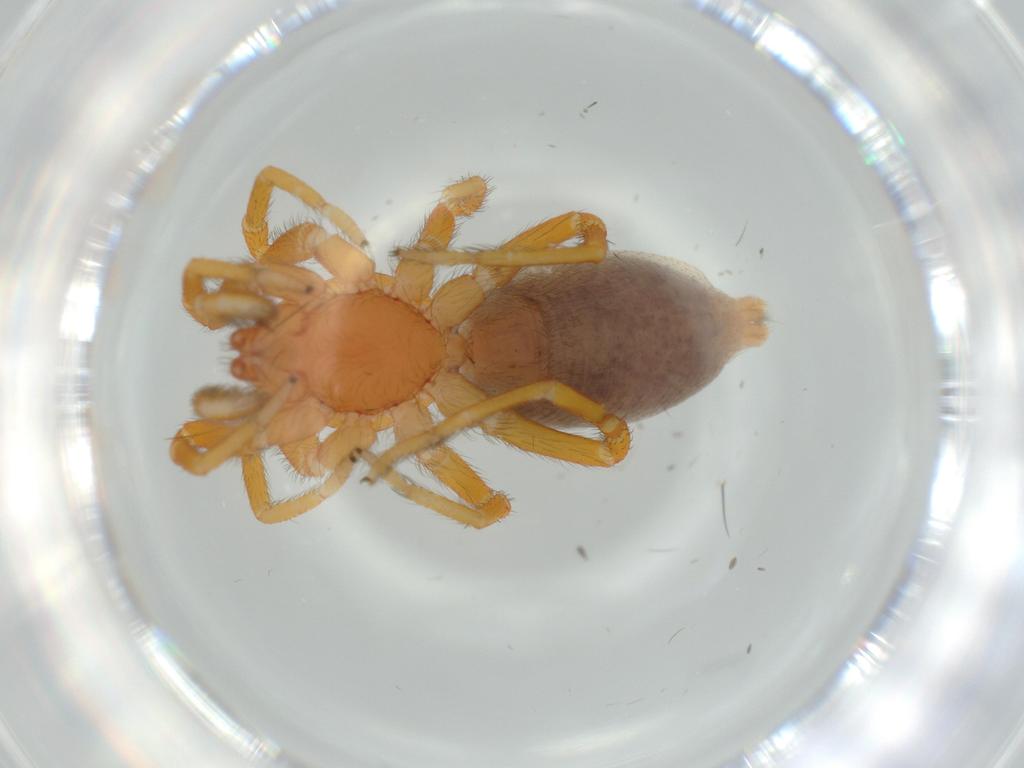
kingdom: Animalia
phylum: Arthropoda
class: Arachnida
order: Araneae
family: Caponiidae
